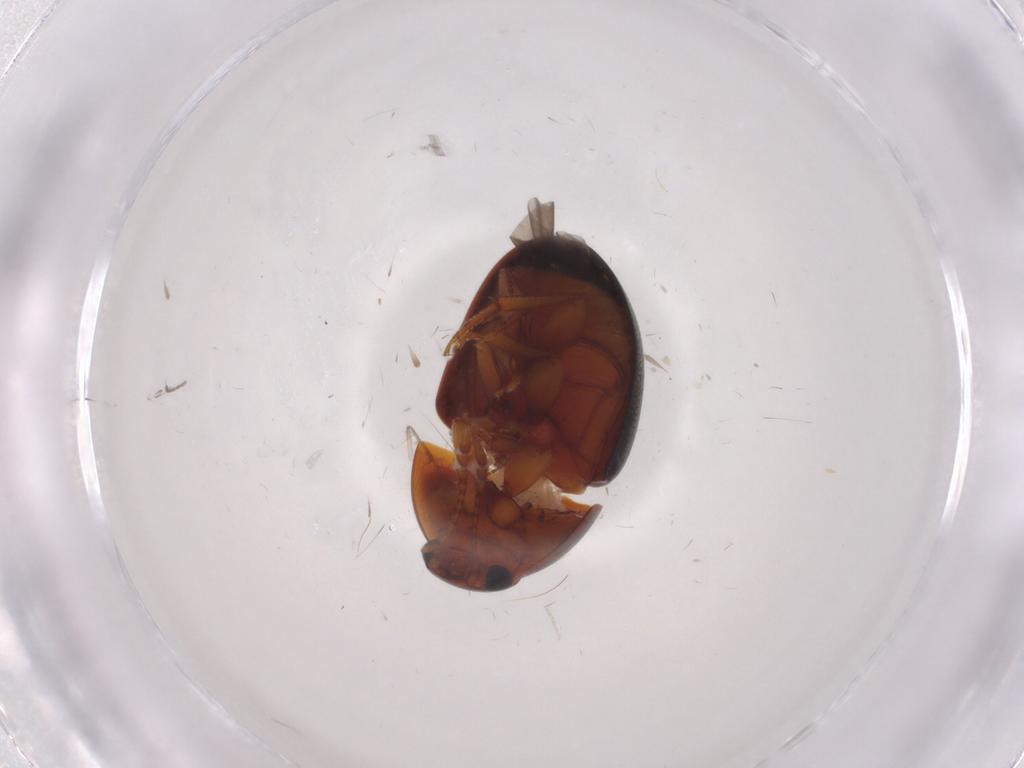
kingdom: Animalia
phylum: Arthropoda
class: Insecta
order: Coleoptera
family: Phalacridae
